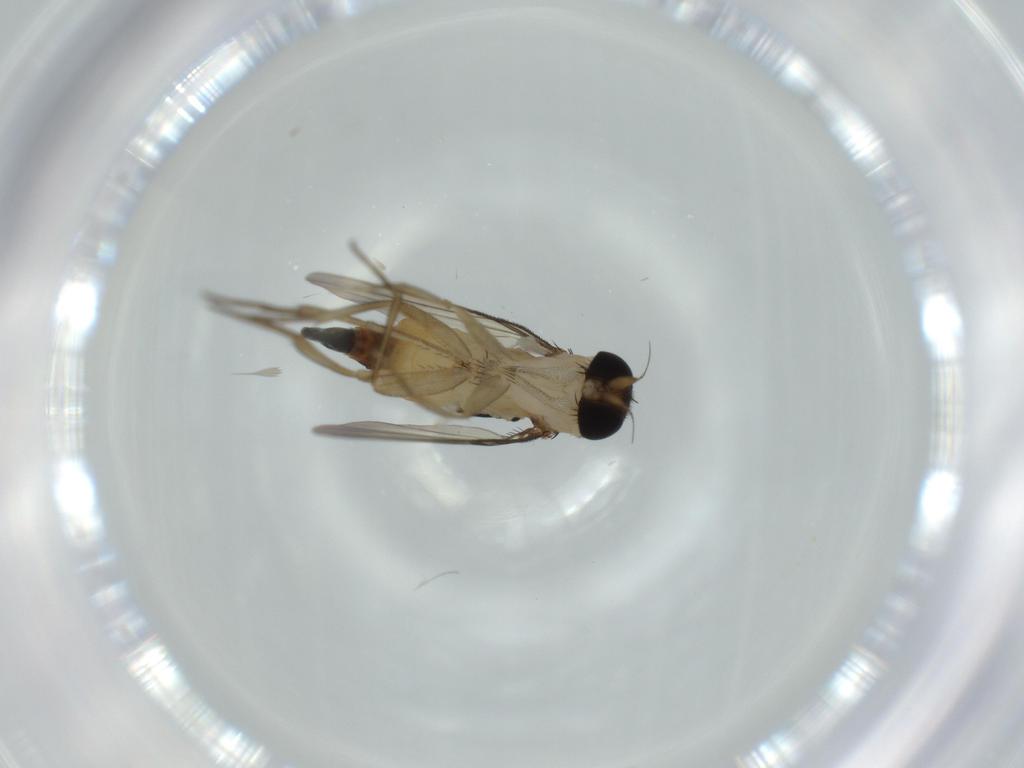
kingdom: Animalia
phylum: Arthropoda
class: Insecta
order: Diptera
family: Phoridae
